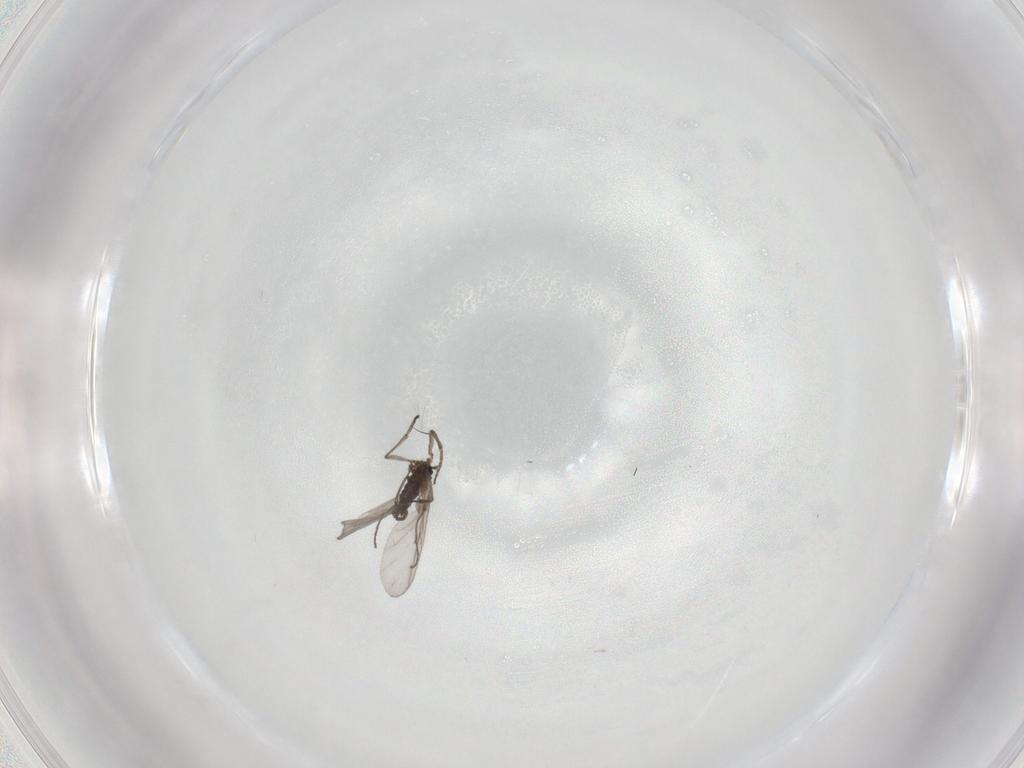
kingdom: Animalia
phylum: Arthropoda
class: Insecta
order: Diptera
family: Sciaridae
